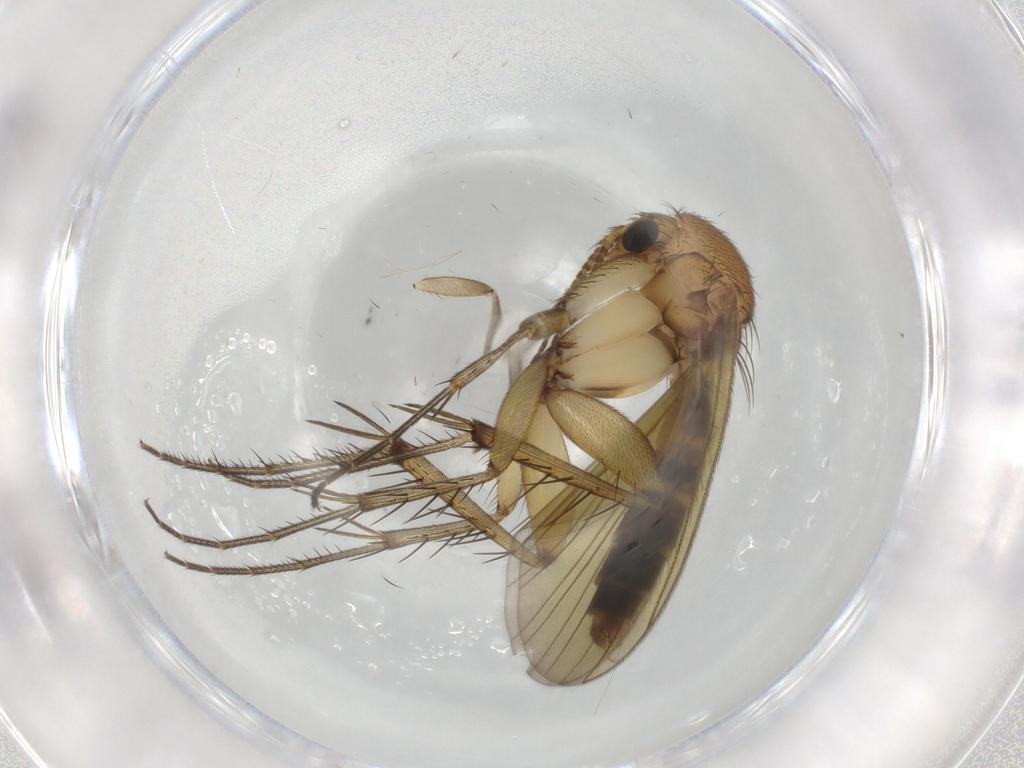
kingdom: Animalia
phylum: Arthropoda
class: Insecta
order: Diptera
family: Mycetophilidae
